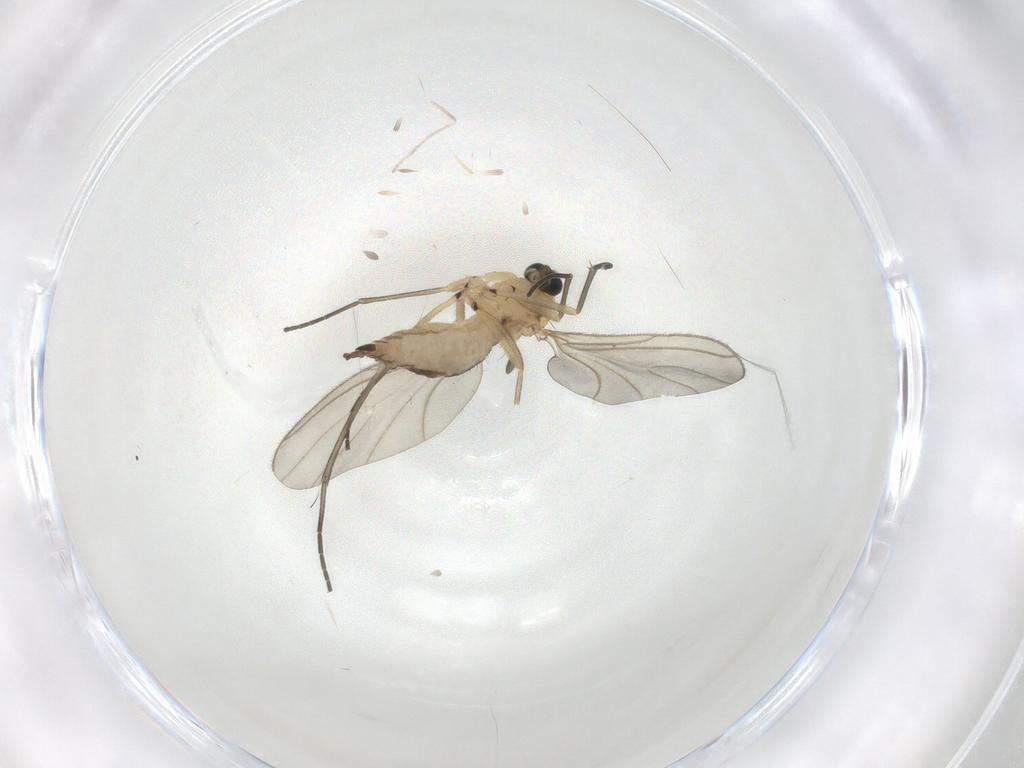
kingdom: Animalia
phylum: Arthropoda
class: Insecta
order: Diptera
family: Sciaridae
